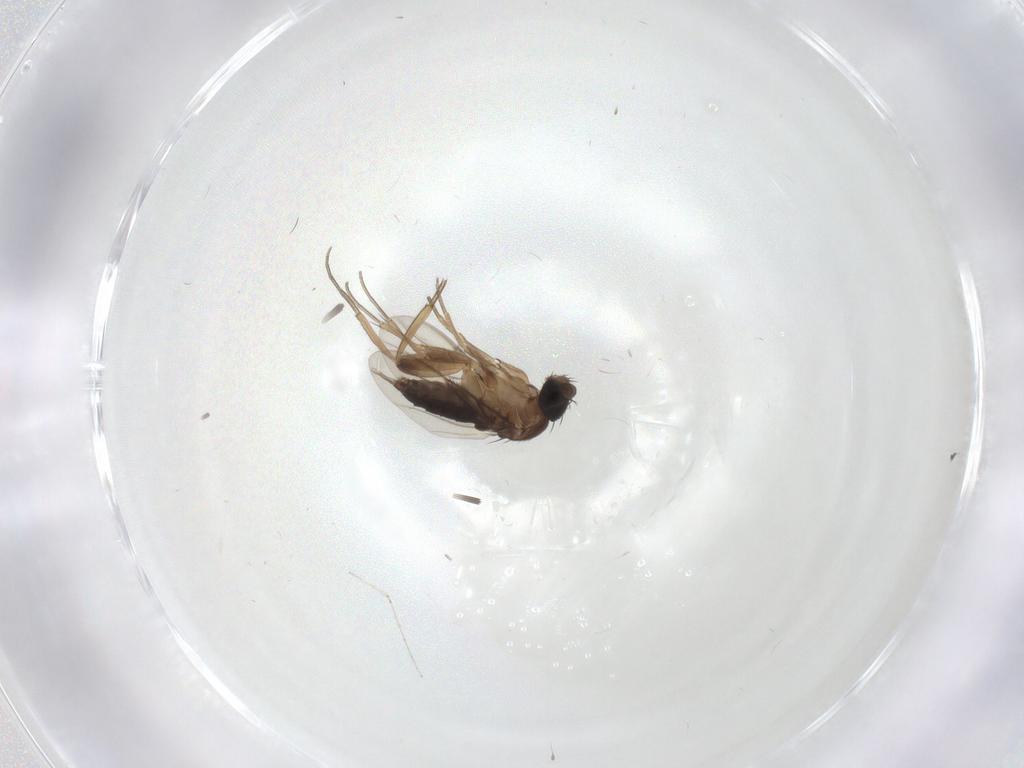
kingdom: Animalia
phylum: Arthropoda
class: Insecta
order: Diptera
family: Cecidomyiidae
